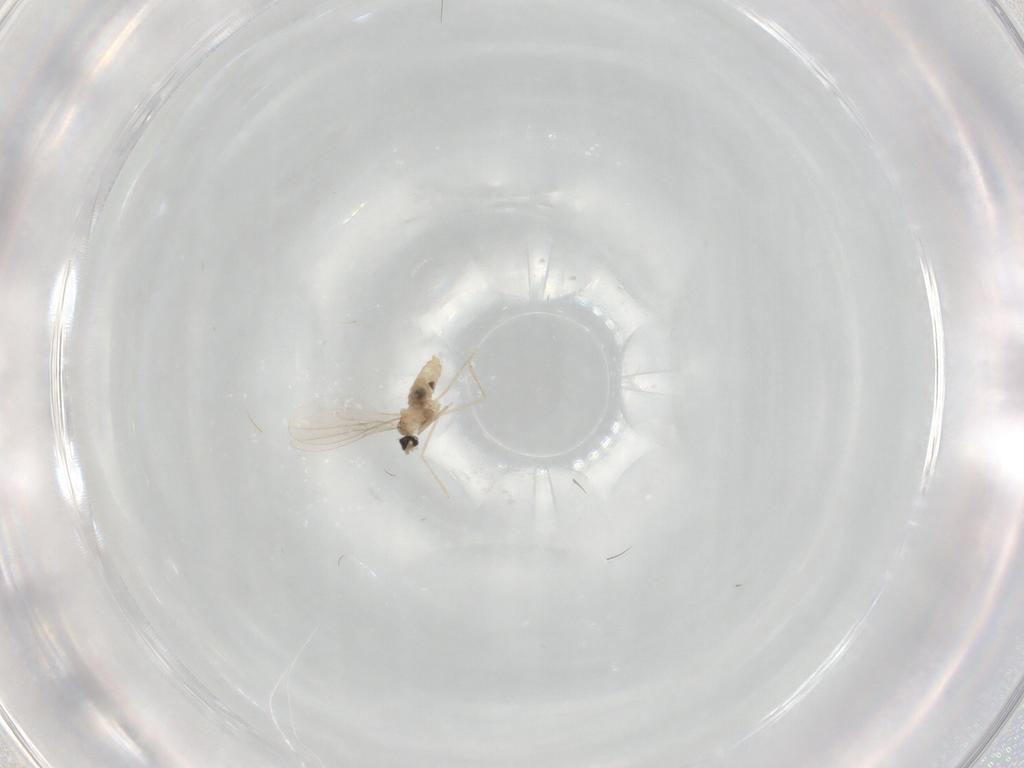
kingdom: Animalia
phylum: Arthropoda
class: Insecta
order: Diptera
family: Cecidomyiidae
